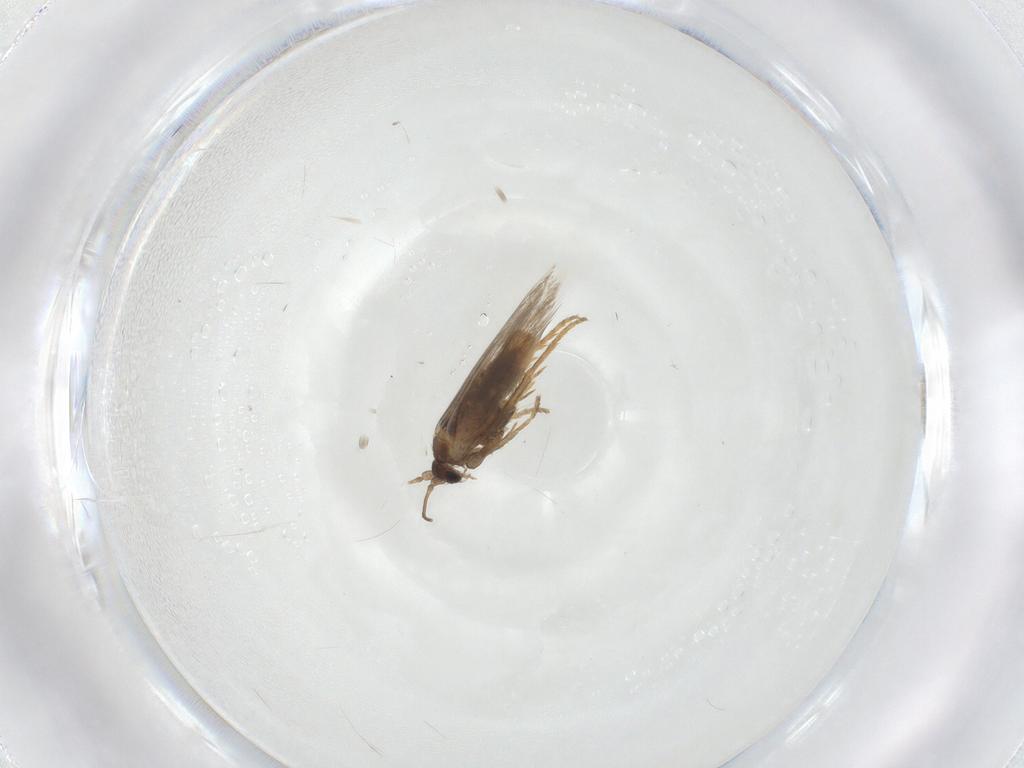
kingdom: Animalia
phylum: Arthropoda
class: Insecta
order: Lepidoptera
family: Nepticulidae
